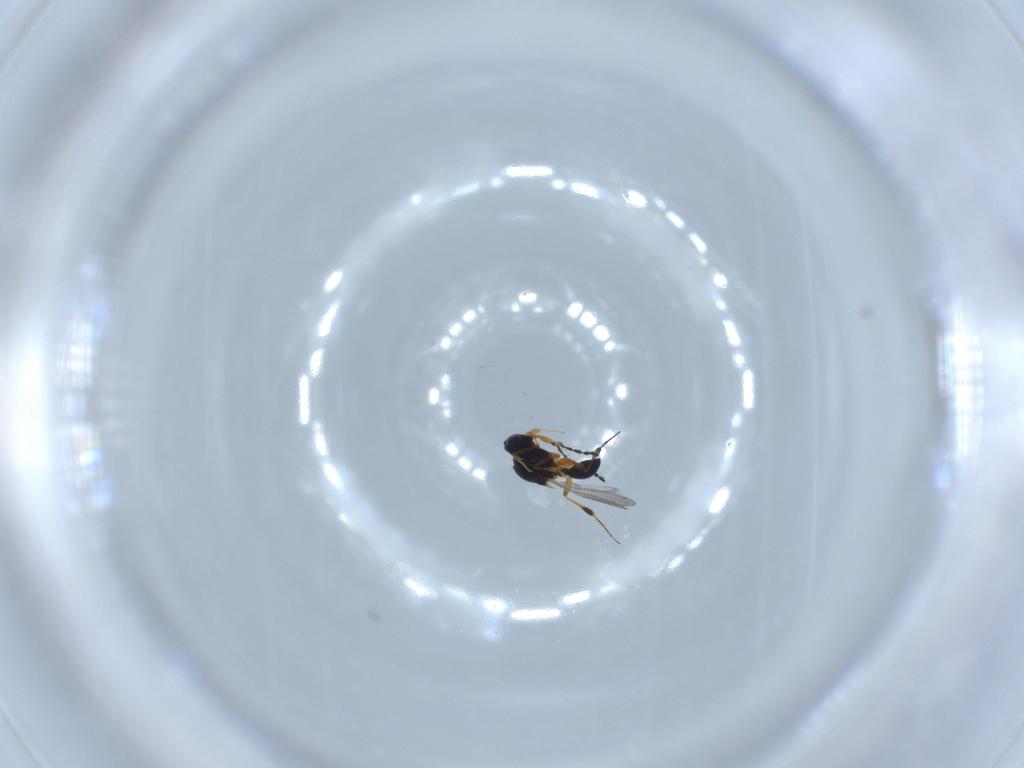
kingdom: Animalia
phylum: Arthropoda
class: Insecta
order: Hymenoptera
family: Platygastridae
